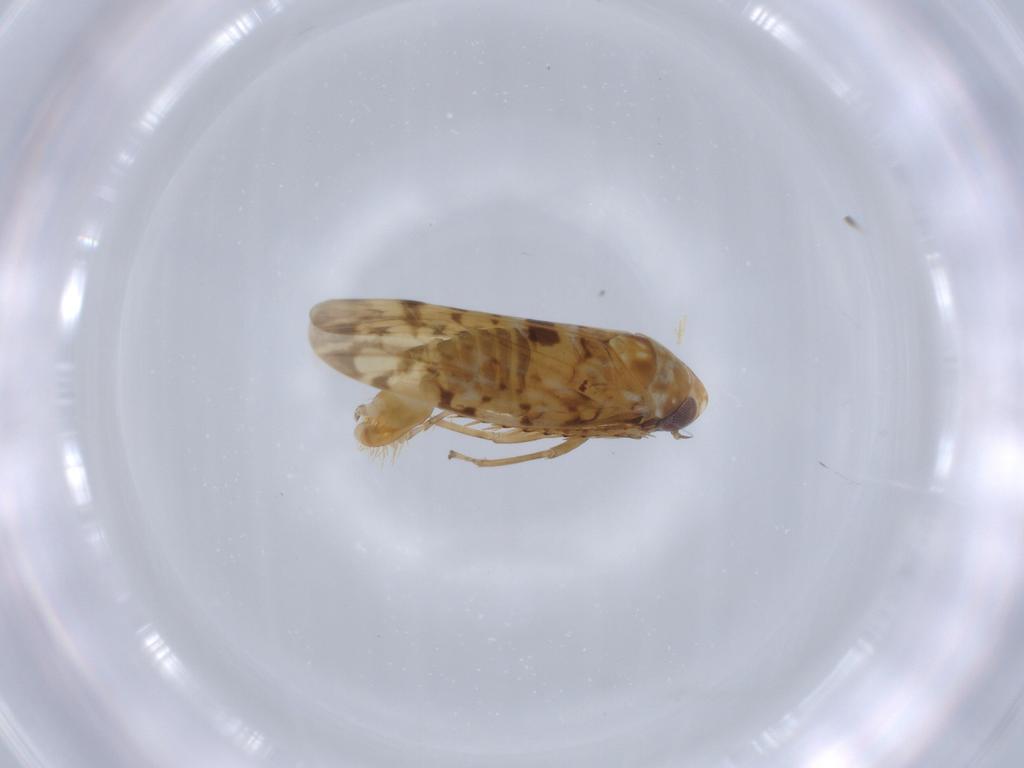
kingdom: Animalia
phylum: Arthropoda
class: Insecta
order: Hemiptera
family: Cicadellidae
